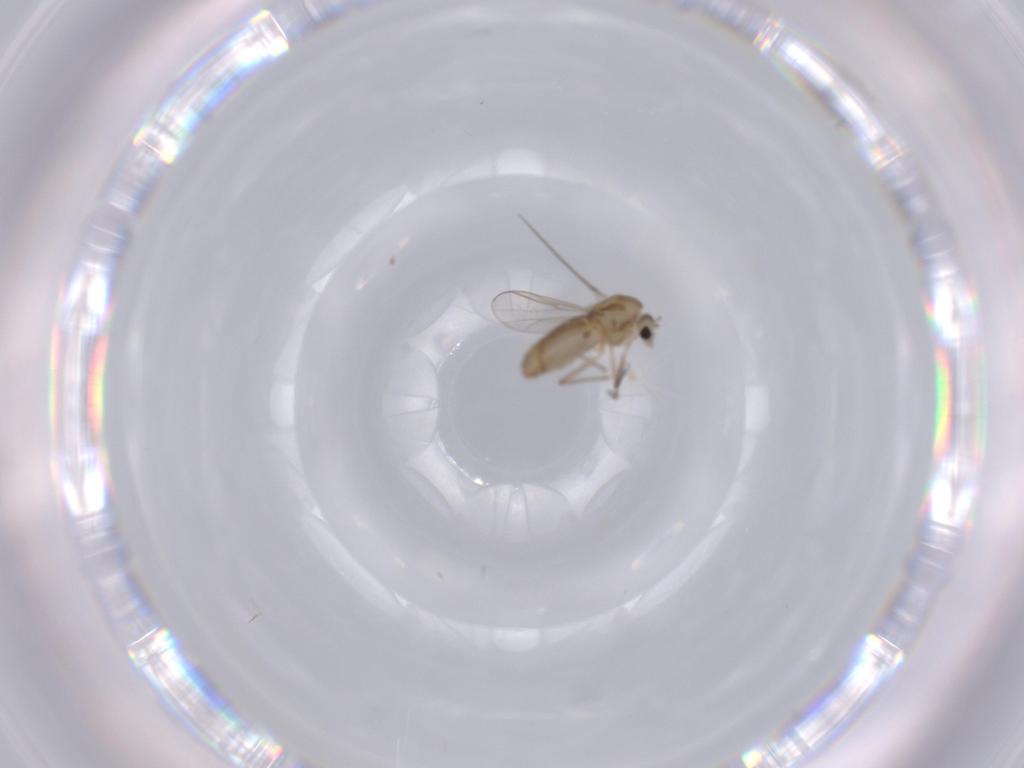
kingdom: Animalia
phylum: Arthropoda
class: Insecta
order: Diptera
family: Chironomidae
